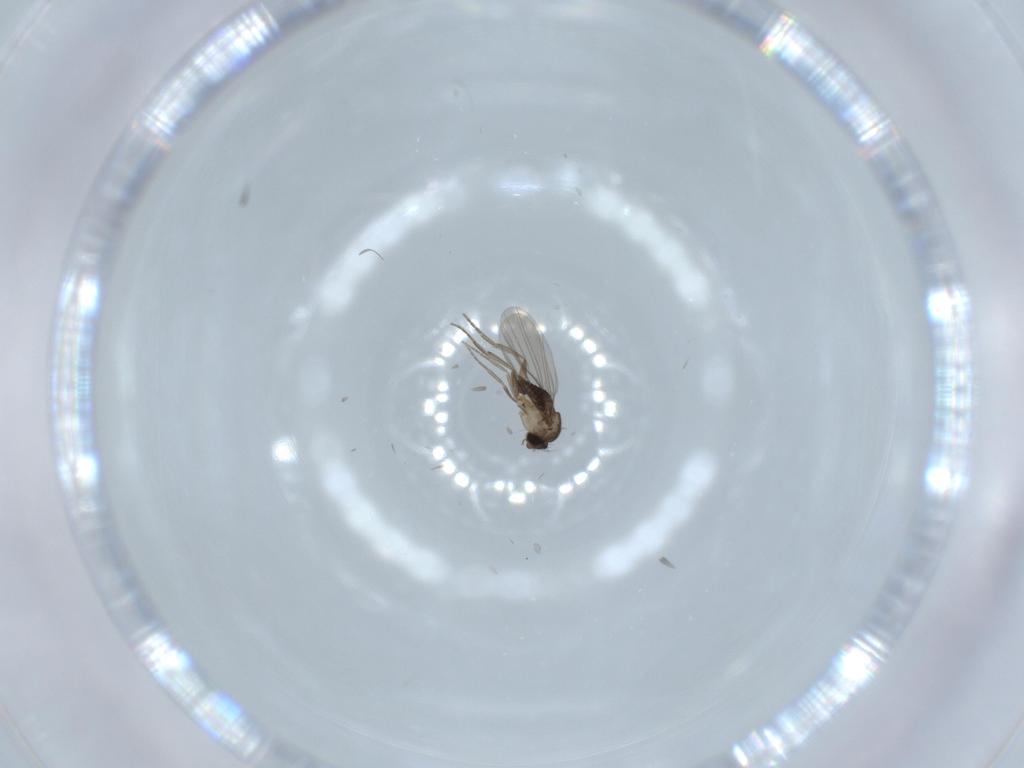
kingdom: Animalia
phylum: Arthropoda
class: Insecta
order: Diptera
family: Phoridae
